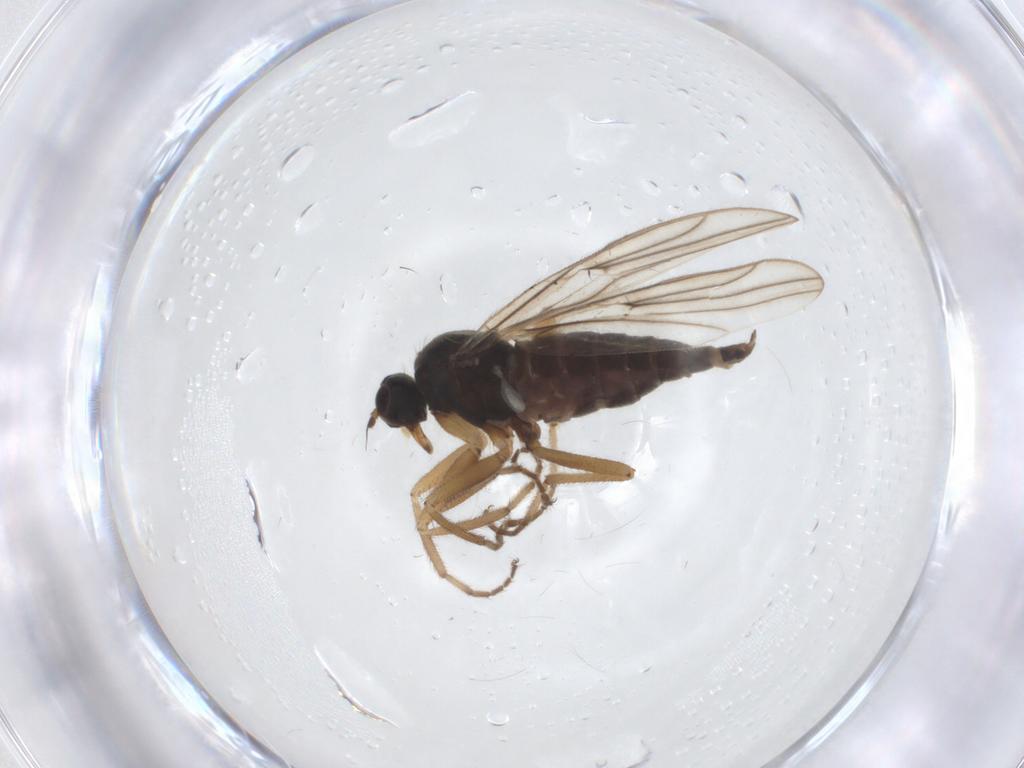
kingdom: Animalia
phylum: Arthropoda
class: Insecta
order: Diptera
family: Hybotidae
